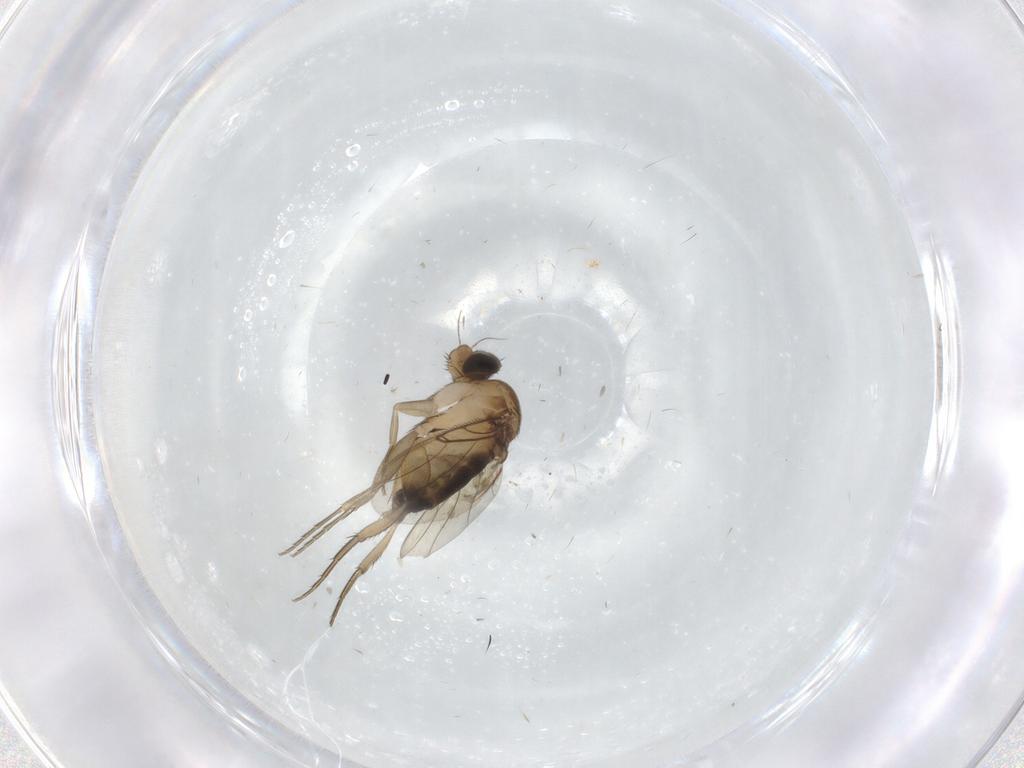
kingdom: Animalia
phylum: Arthropoda
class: Insecta
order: Diptera
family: Phoridae
